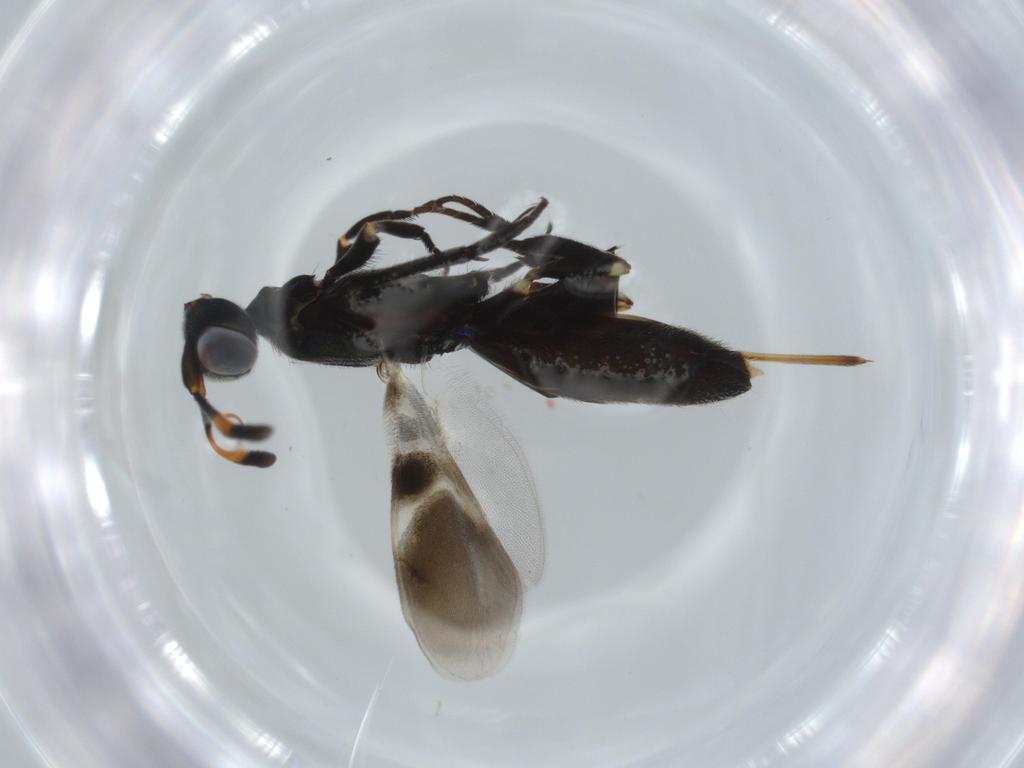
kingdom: Animalia
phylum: Arthropoda
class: Insecta
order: Hymenoptera
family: Eupelmidae
